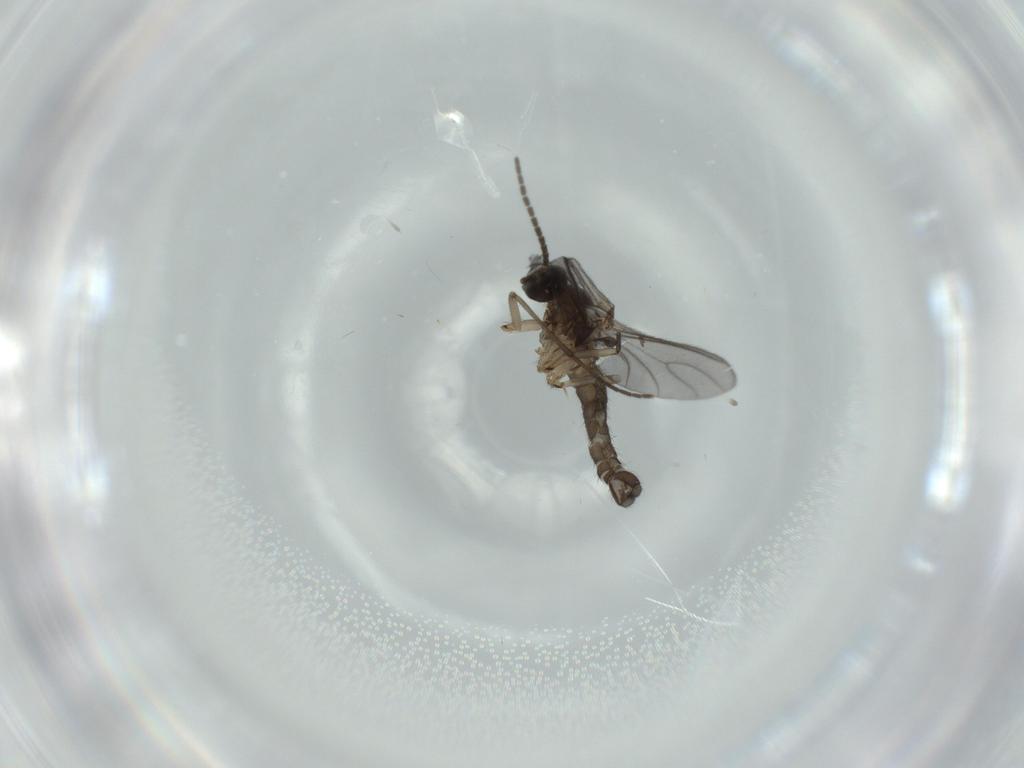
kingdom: Animalia
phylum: Arthropoda
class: Insecta
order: Diptera
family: Sciaridae
